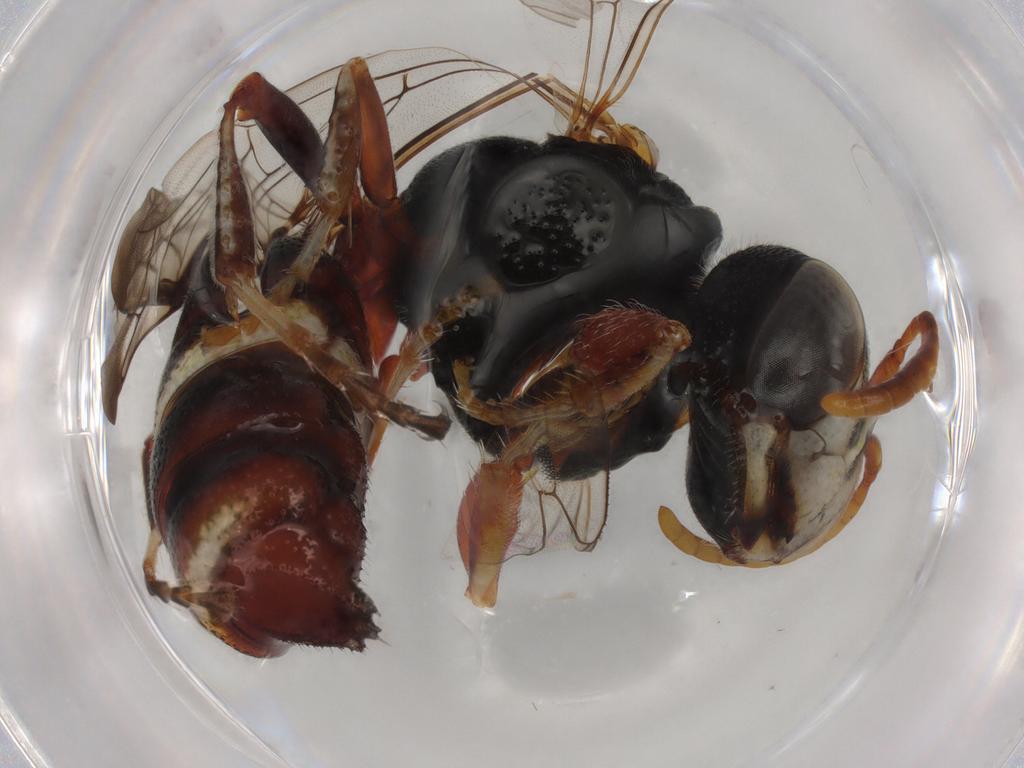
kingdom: Animalia
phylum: Arthropoda
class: Insecta
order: Hymenoptera
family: Philanthidae
